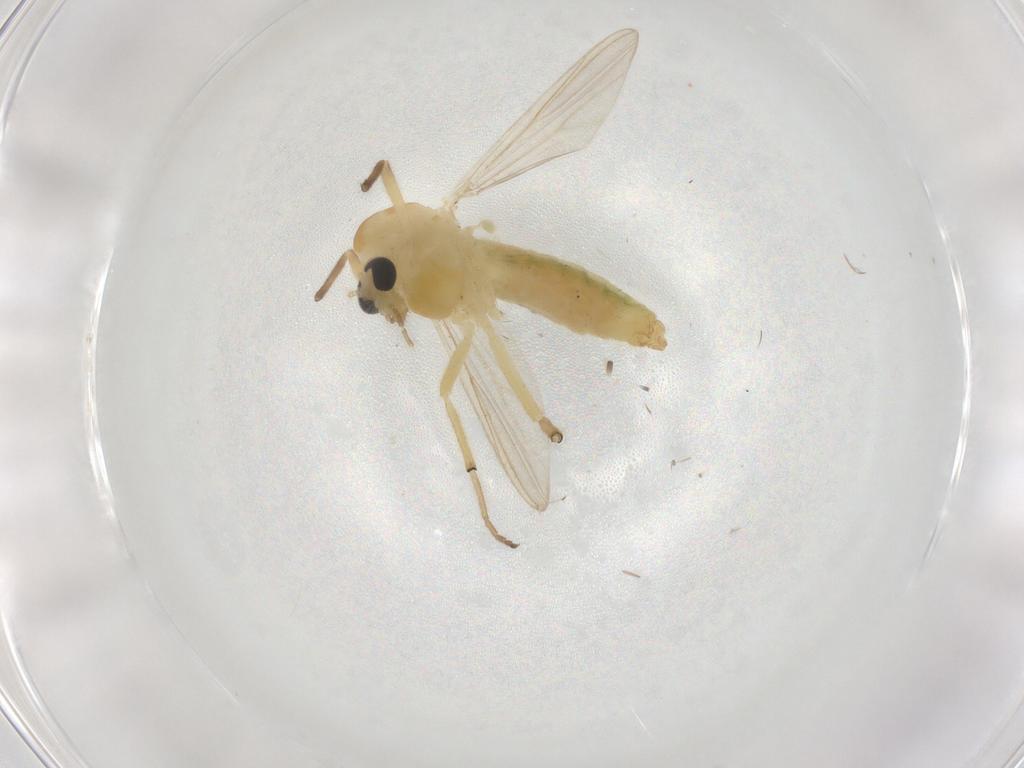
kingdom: Animalia
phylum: Arthropoda
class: Insecta
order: Diptera
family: Chironomidae
